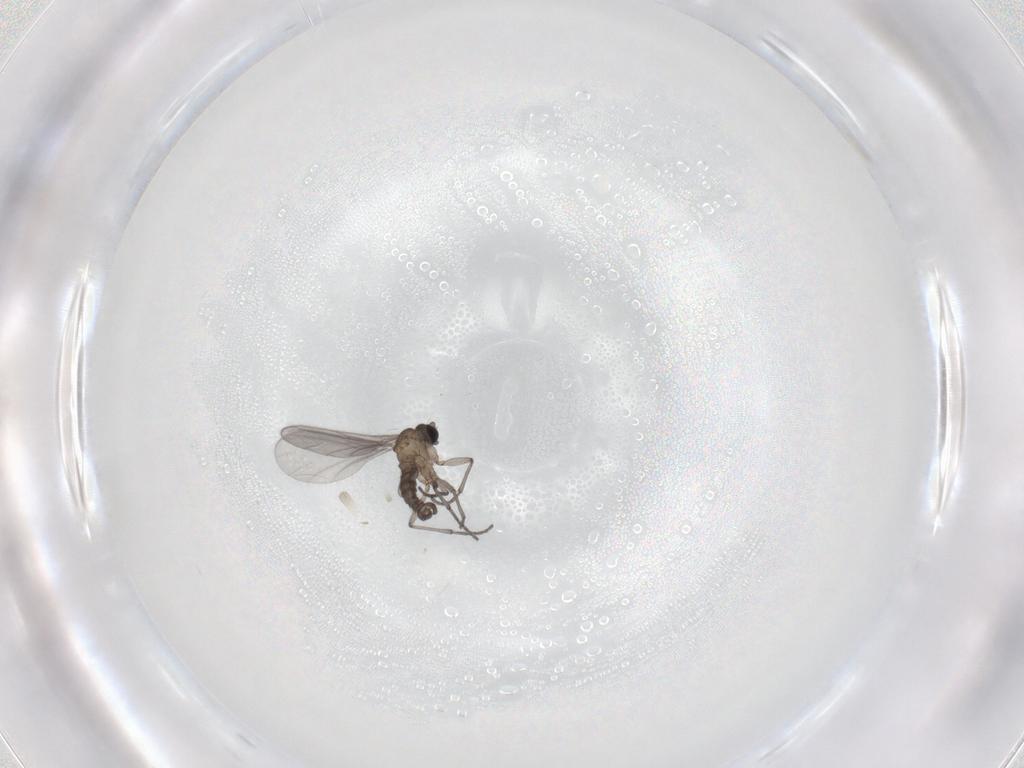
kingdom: Animalia
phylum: Arthropoda
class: Insecta
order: Diptera
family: Sciaridae
